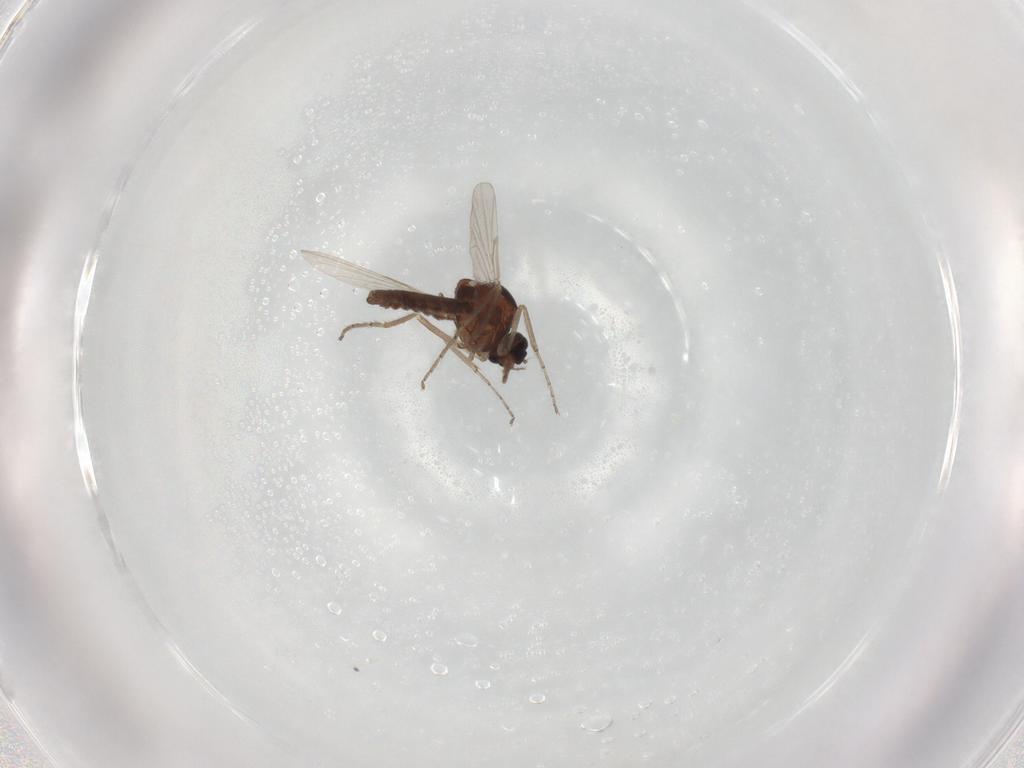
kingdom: Animalia
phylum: Arthropoda
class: Insecta
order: Diptera
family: Ceratopogonidae
